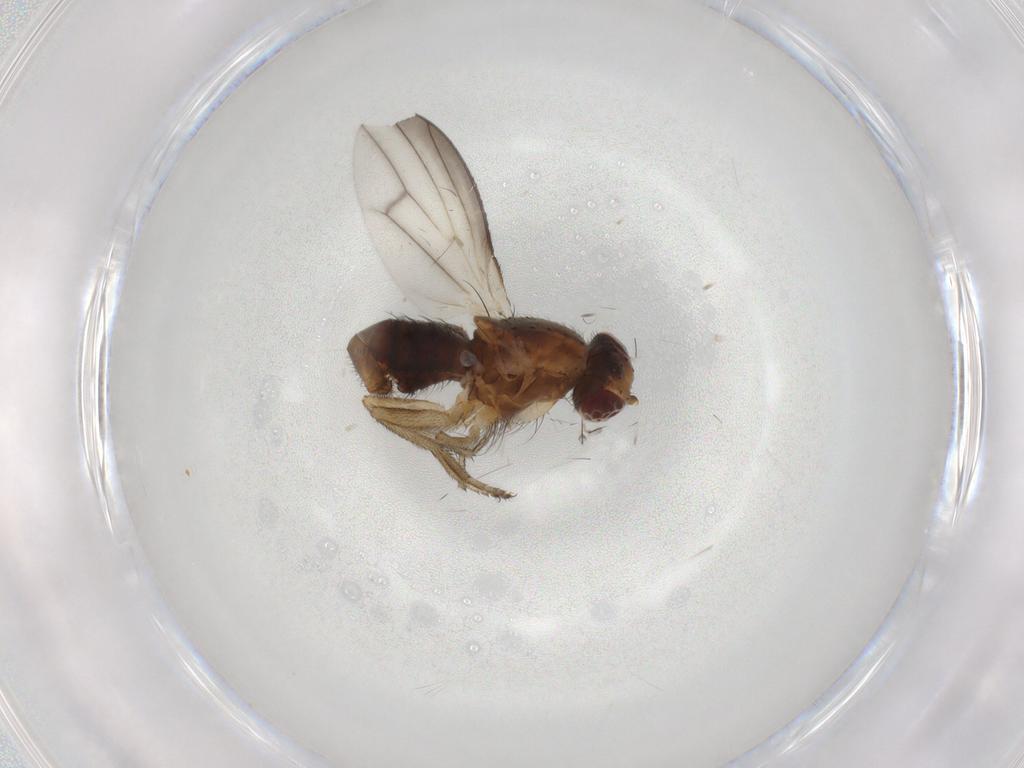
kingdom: Animalia
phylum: Arthropoda
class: Insecta
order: Diptera
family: Heleomyzidae
